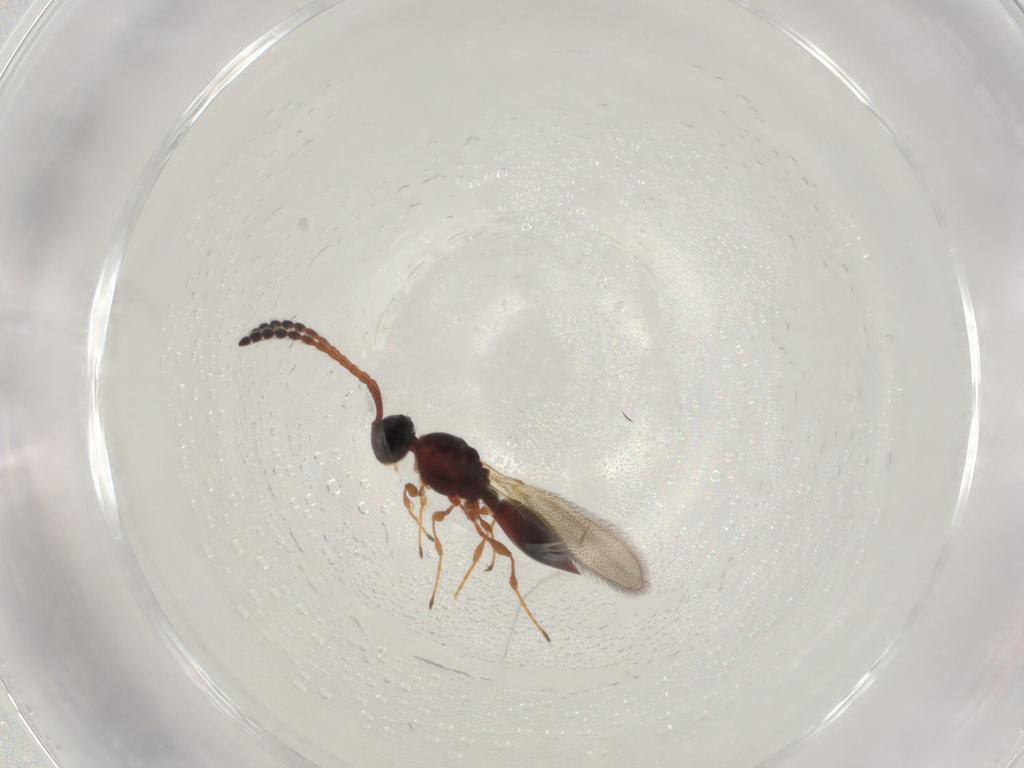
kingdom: Animalia
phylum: Arthropoda
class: Insecta
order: Hymenoptera
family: Diapriidae
